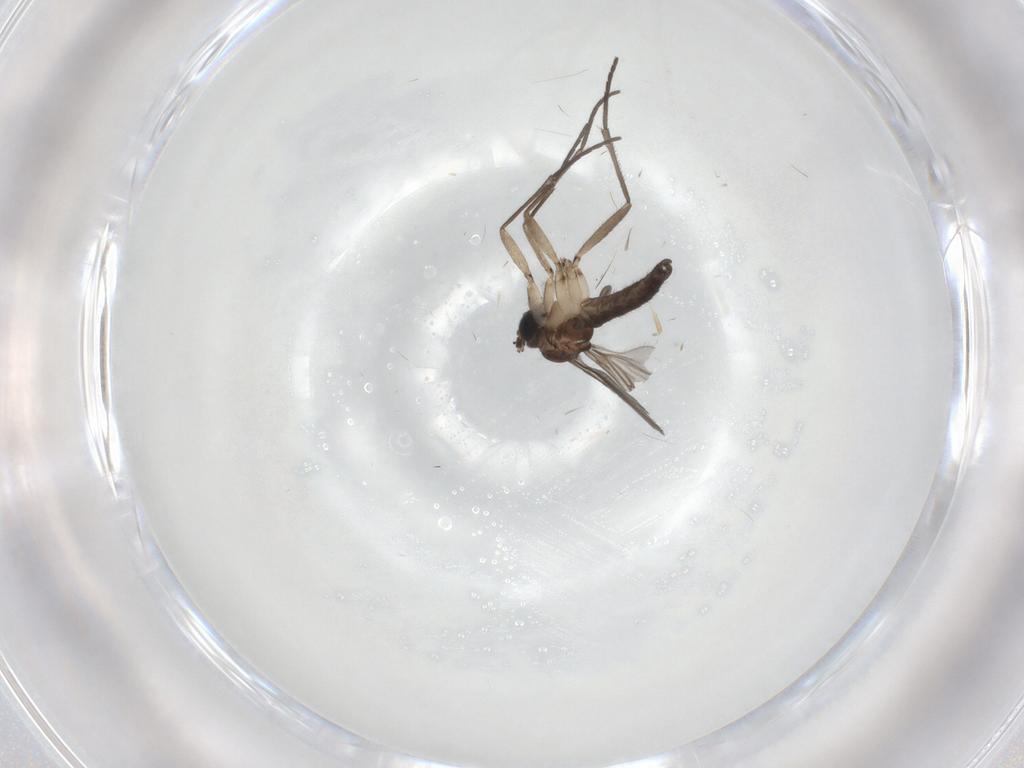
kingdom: Animalia
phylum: Arthropoda
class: Insecta
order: Diptera
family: Sciaridae
